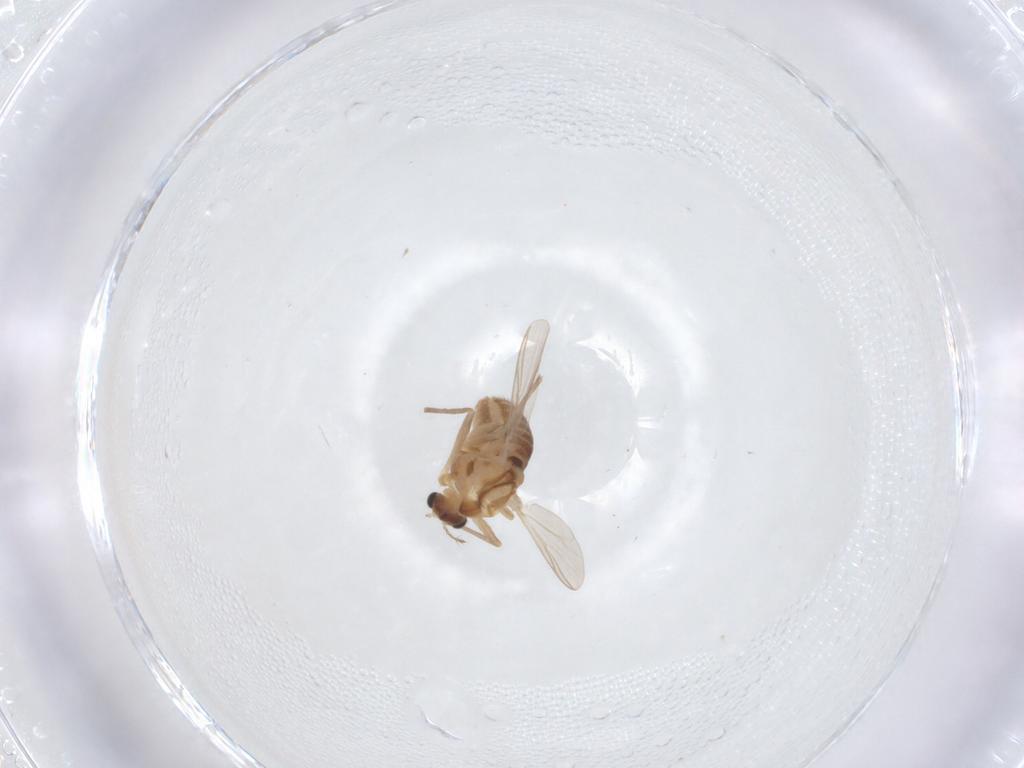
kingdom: Animalia
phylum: Arthropoda
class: Insecta
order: Diptera
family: Chironomidae
